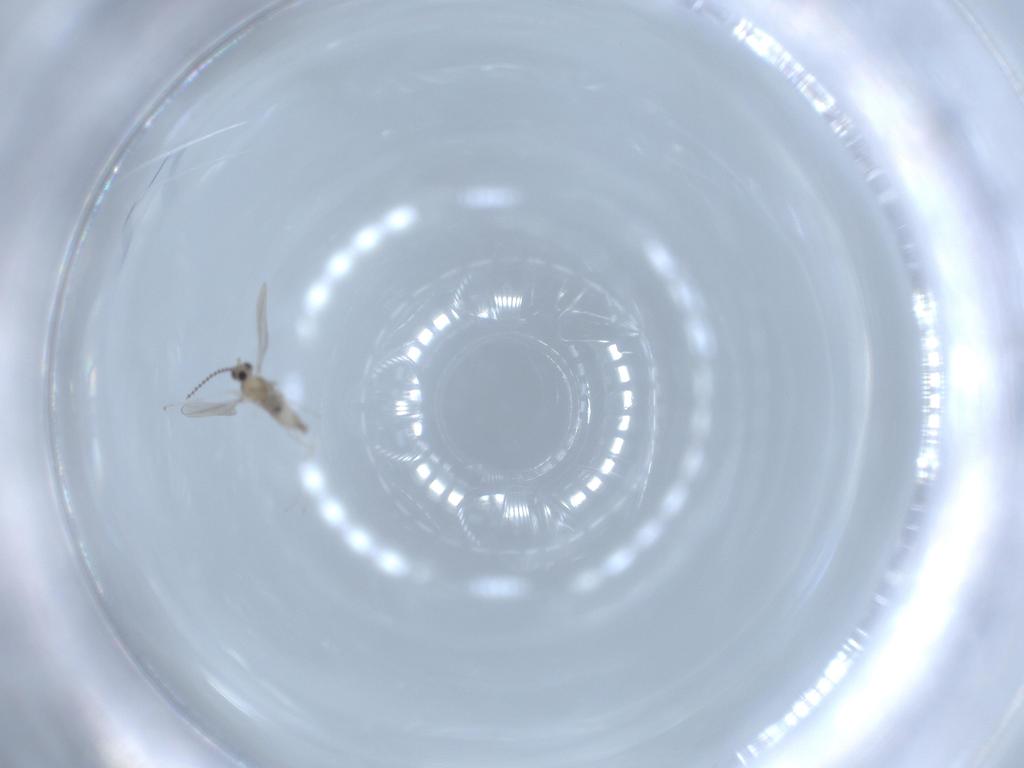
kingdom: Animalia
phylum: Arthropoda
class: Insecta
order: Diptera
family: Cecidomyiidae
